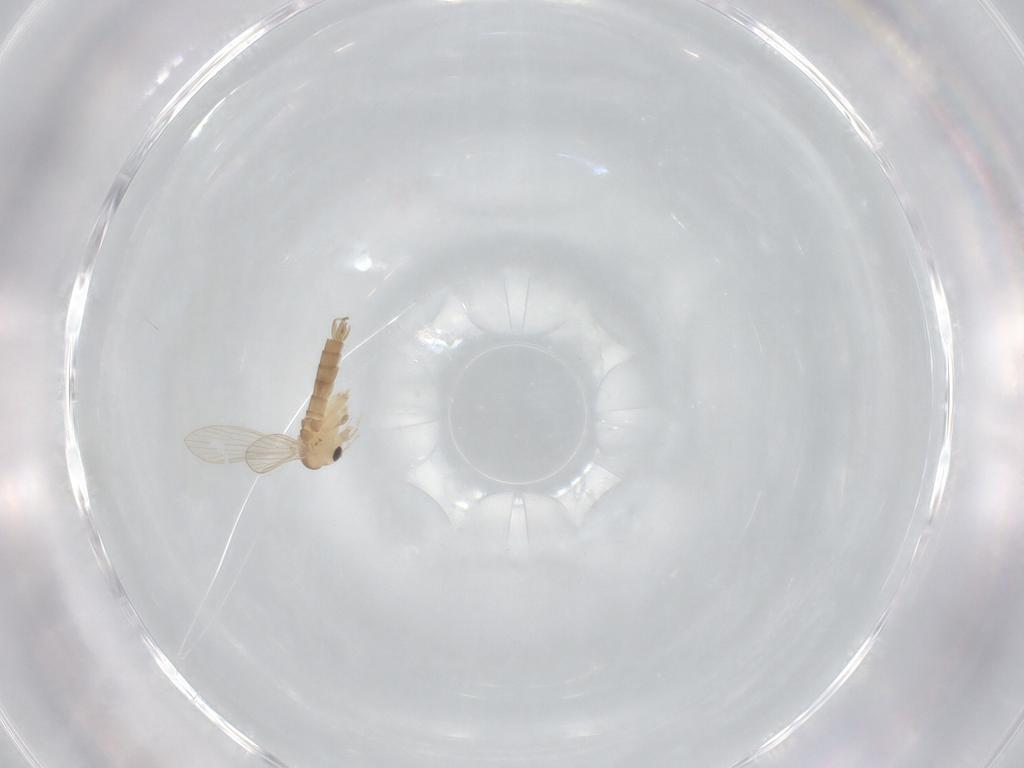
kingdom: Animalia
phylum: Arthropoda
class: Insecta
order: Diptera
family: Psychodidae
